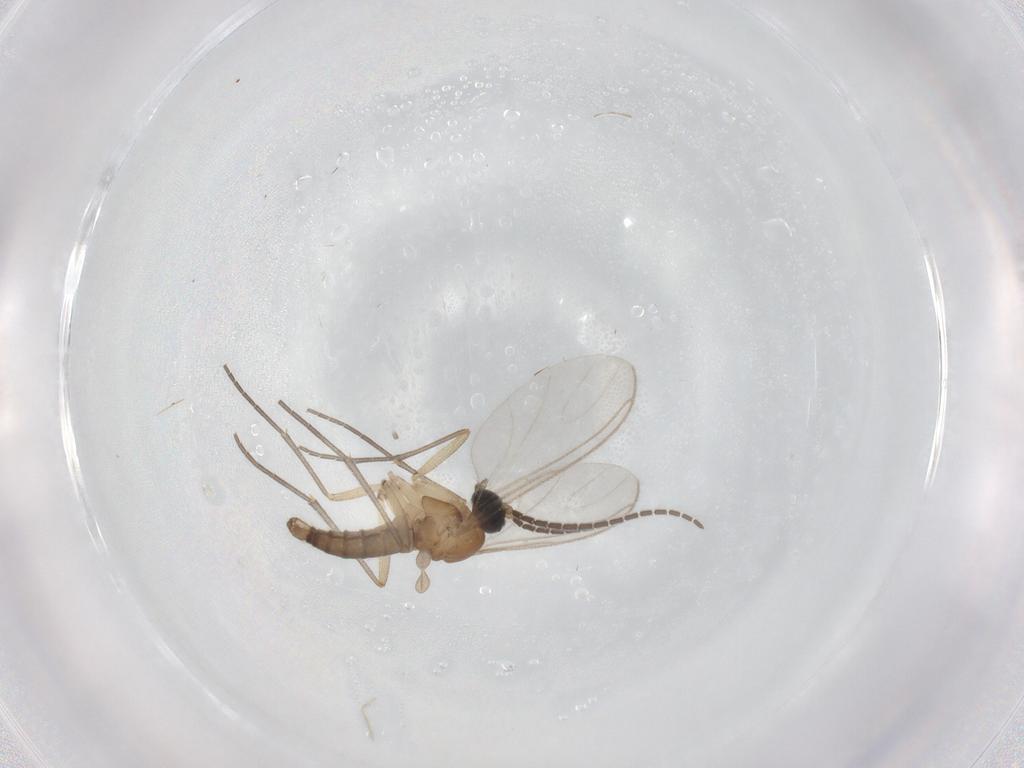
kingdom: Animalia
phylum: Arthropoda
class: Insecta
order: Diptera
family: Sciaridae
